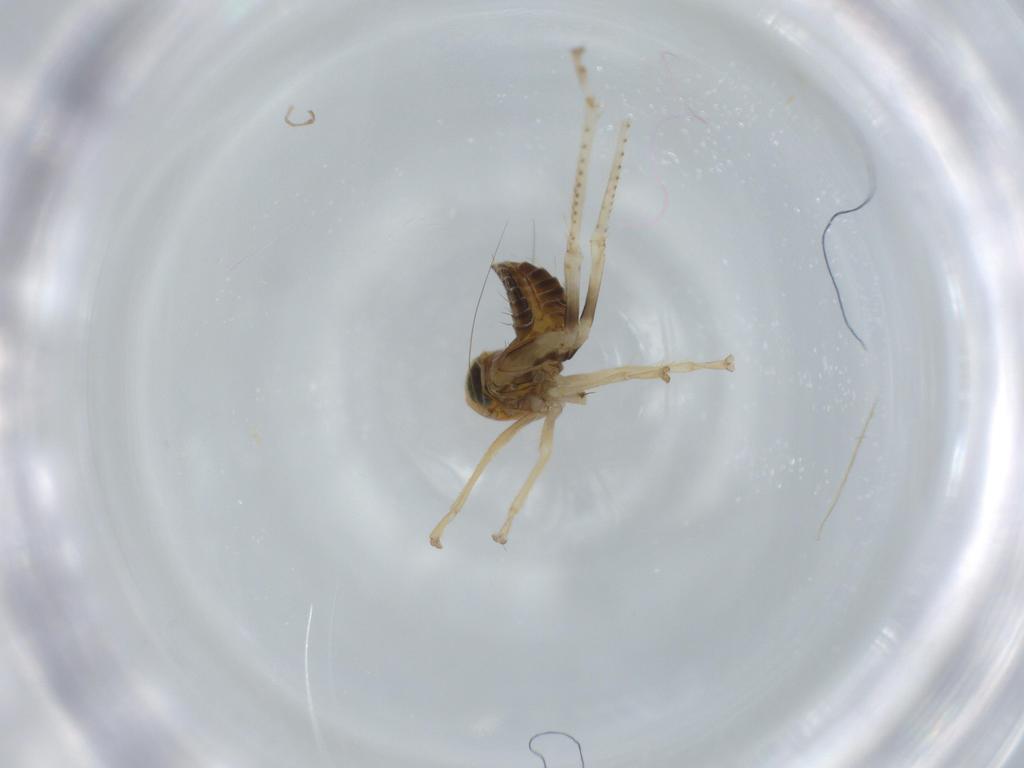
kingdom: Animalia
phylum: Arthropoda
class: Insecta
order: Hemiptera
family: Cicadellidae
